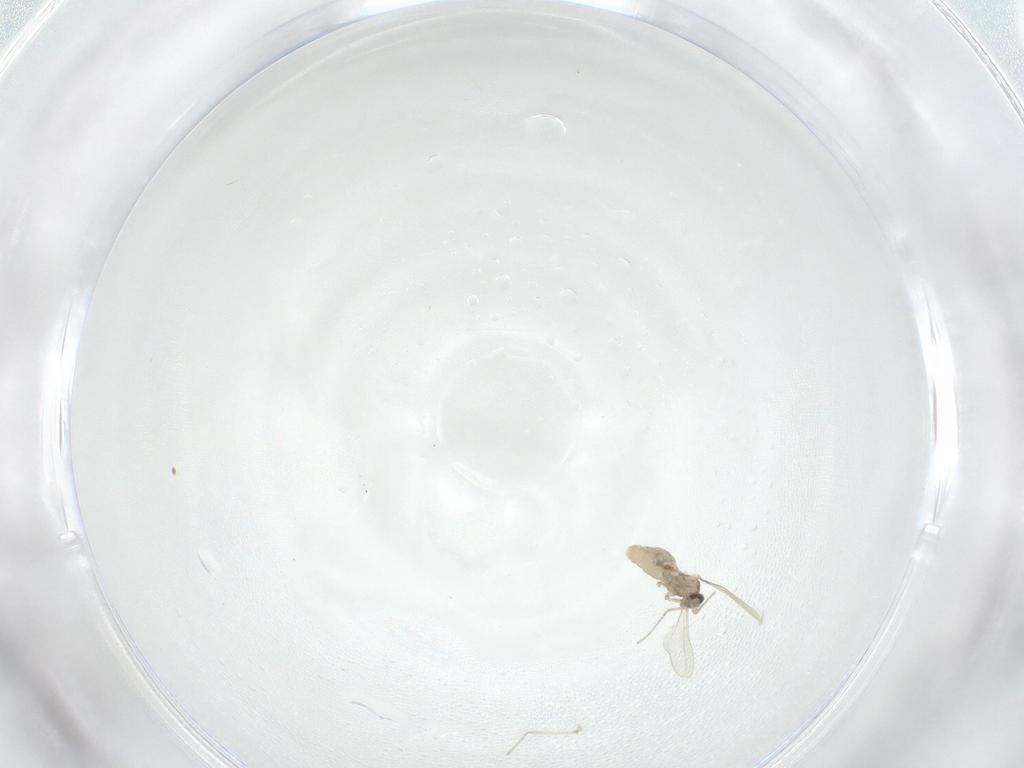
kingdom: Animalia
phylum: Arthropoda
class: Insecta
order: Diptera
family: Cecidomyiidae
